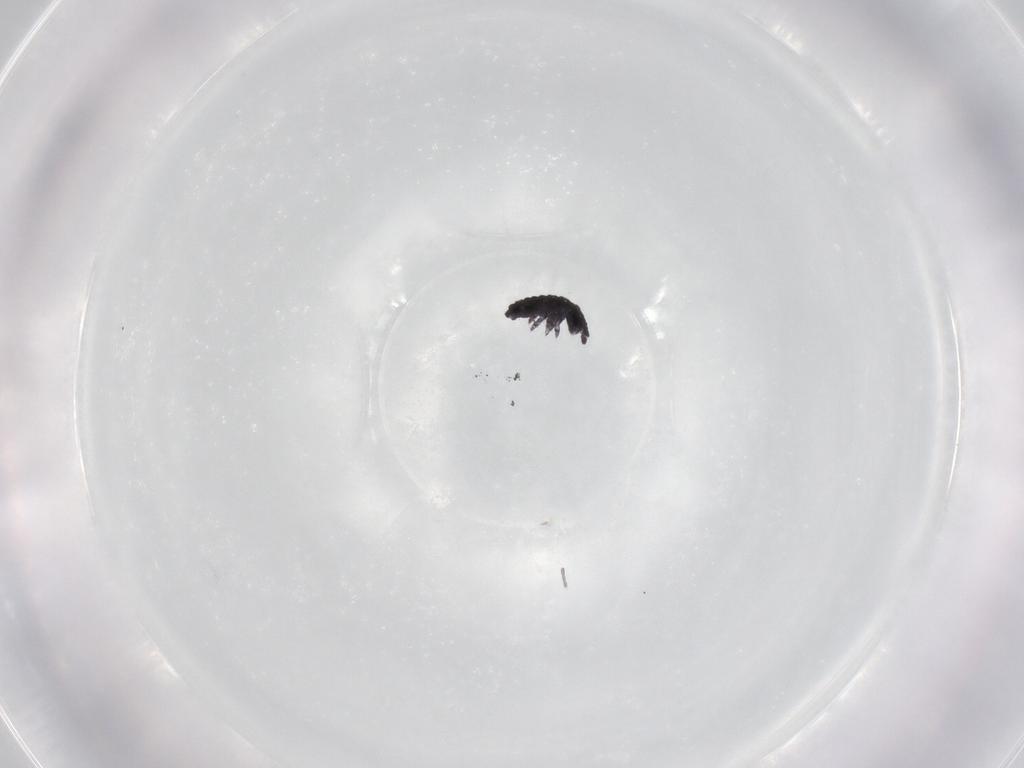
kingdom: Animalia
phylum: Arthropoda
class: Collembola
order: Poduromorpha
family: Hypogastruridae
